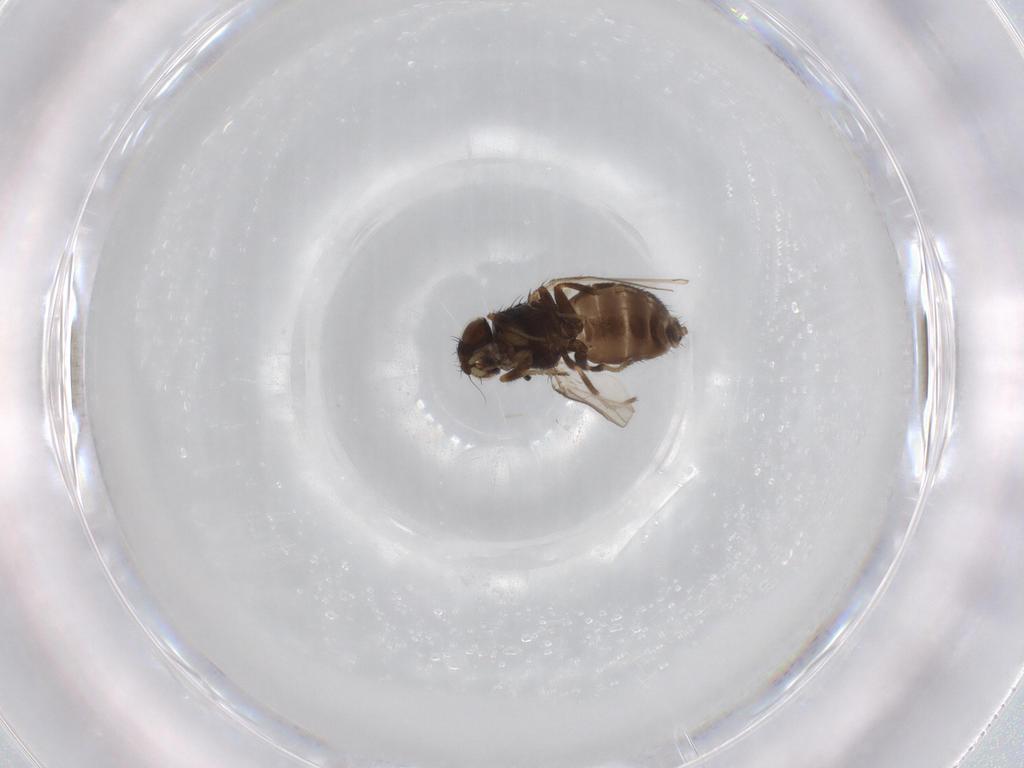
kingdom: Animalia
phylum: Arthropoda
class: Insecta
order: Diptera
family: Milichiidae
